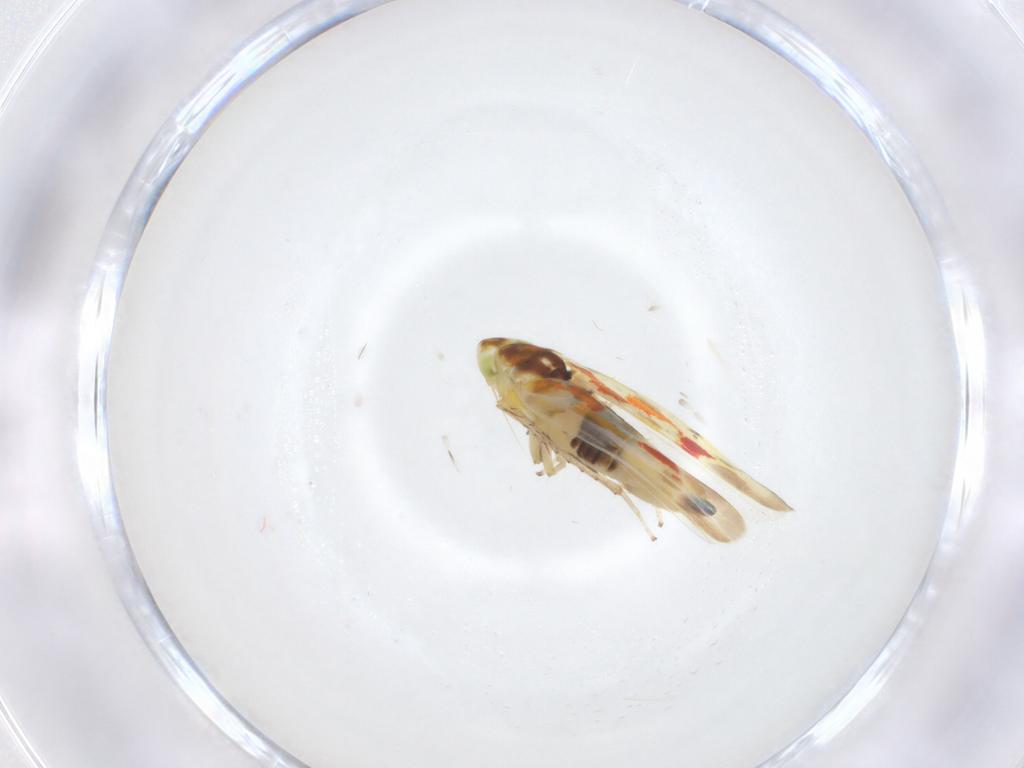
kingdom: Animalia
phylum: Arthropoda
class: Insecta
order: Hemiptera
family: Cicadellidae
